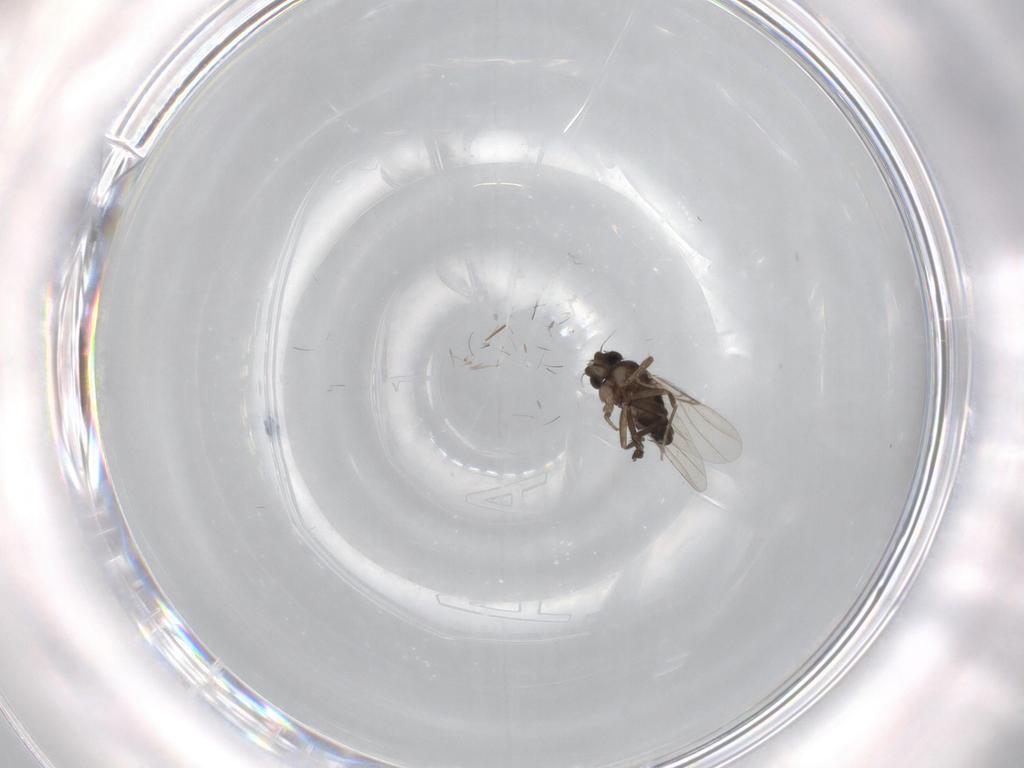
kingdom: Animalia
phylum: Arthropoda
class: Insecta
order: Diptera
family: Phoridae
